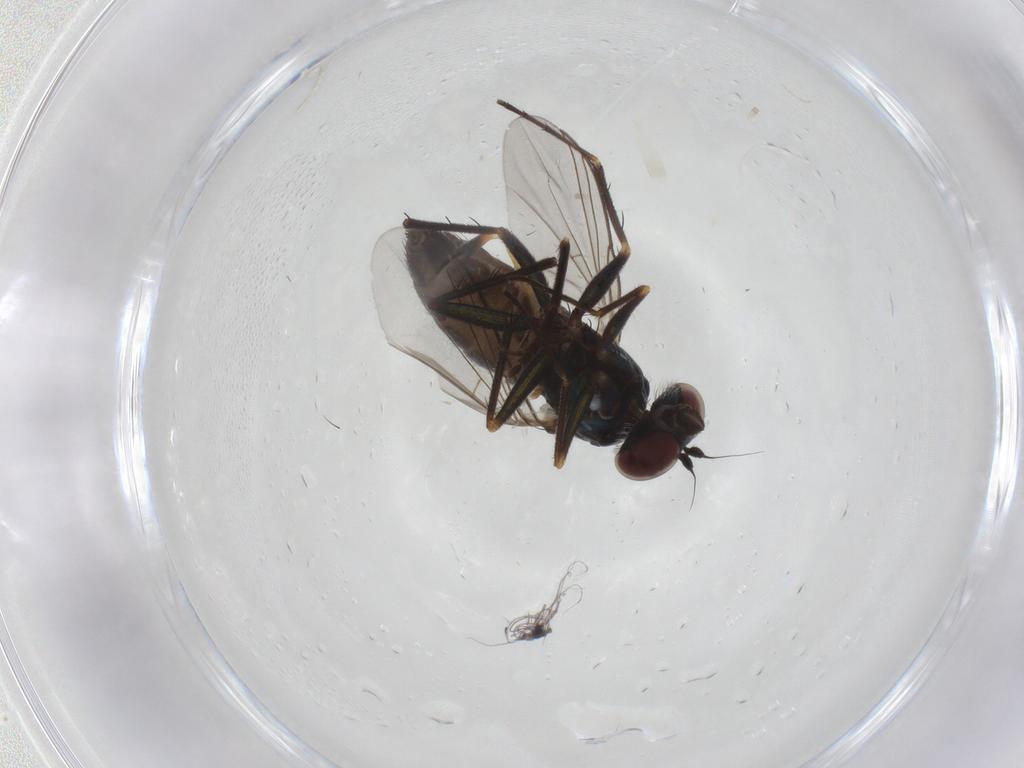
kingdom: Animalia
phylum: Arthropoda
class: Insecta
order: Diptera
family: Dolichopodidae
